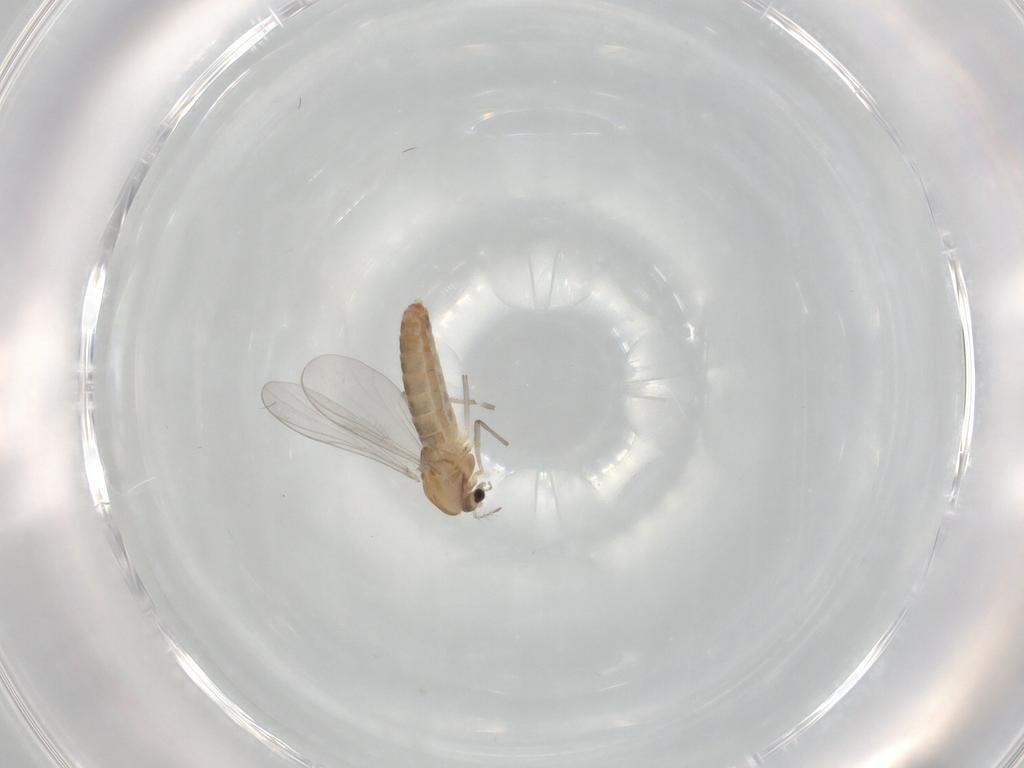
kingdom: Animalia
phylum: Arthropoda
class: Insecta
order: Diptera
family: Chironomidae
